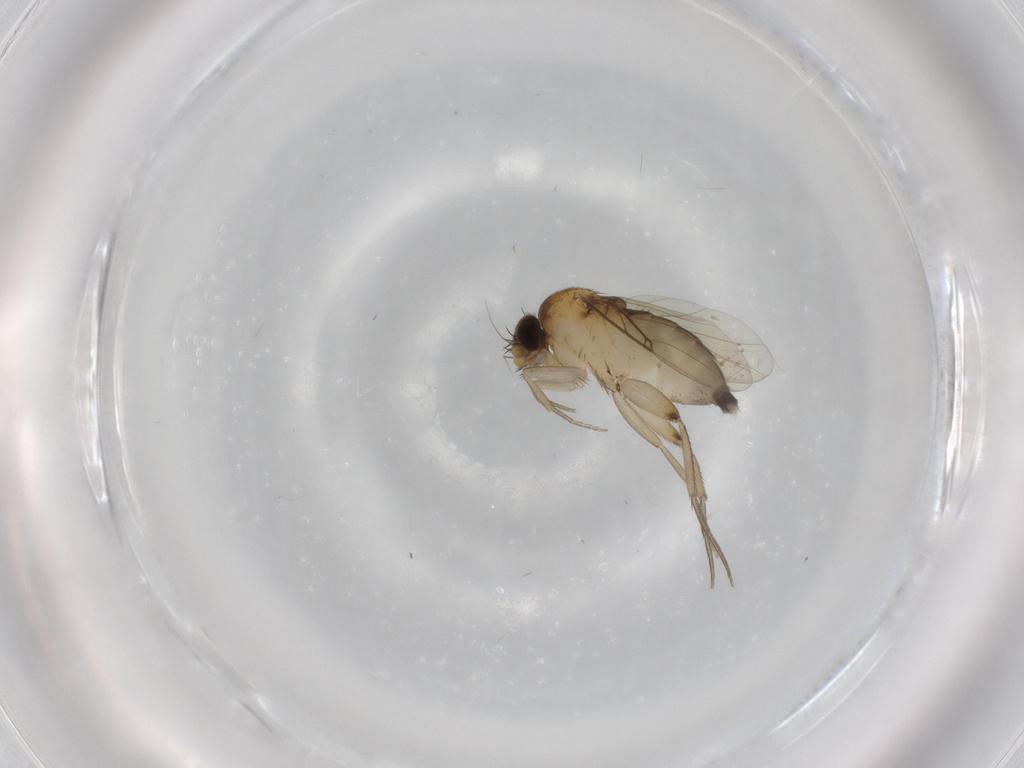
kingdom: Animalia
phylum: Arthropoda
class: Insecta
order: Diptera
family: Phoridae
